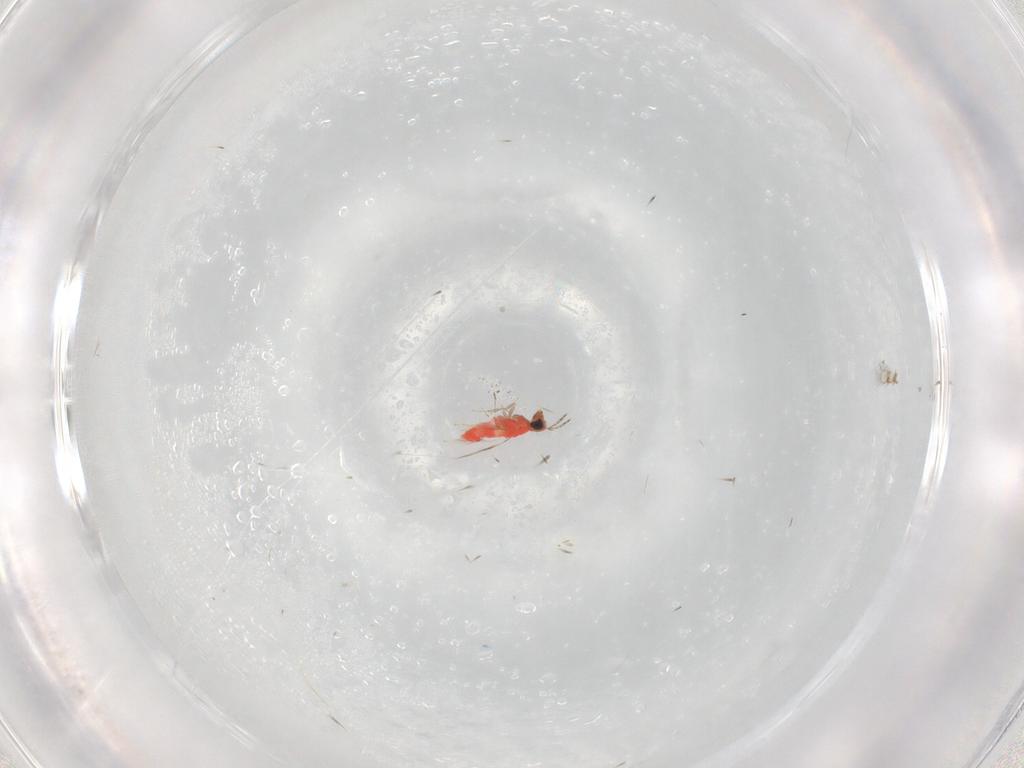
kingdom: Animalia
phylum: Arthropoda
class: Insecta
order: Hymenoptera
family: Trichogrammatidae
